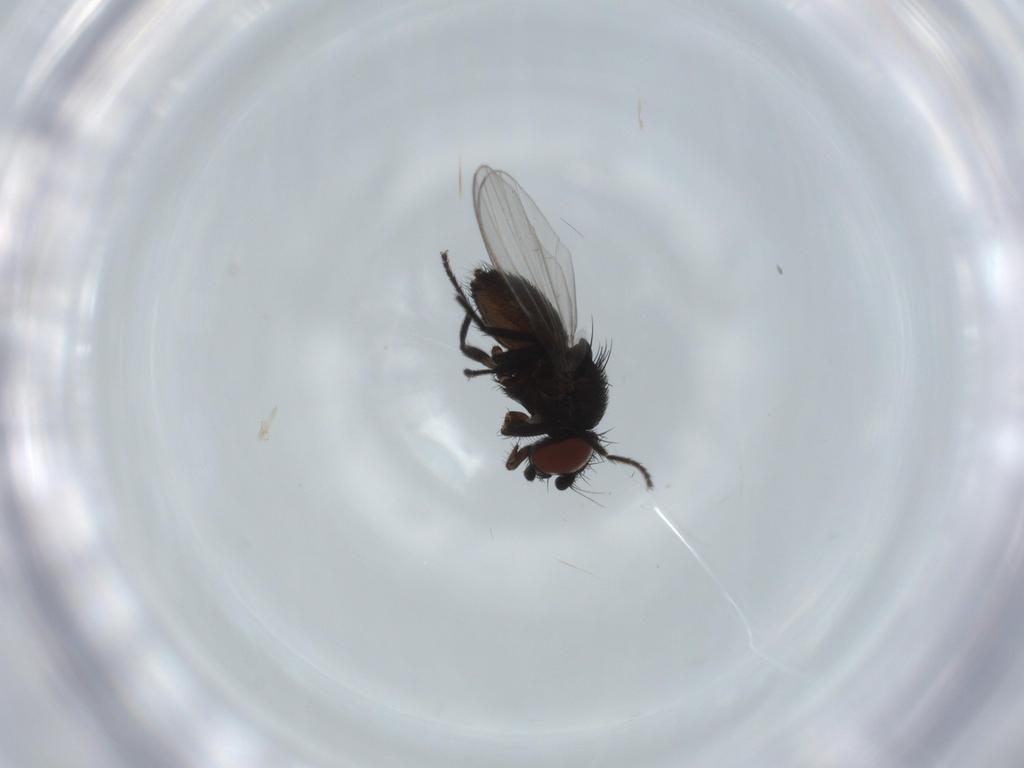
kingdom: Animalia
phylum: Arthropoda
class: Insecta
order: Diptera
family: Milichiidae
